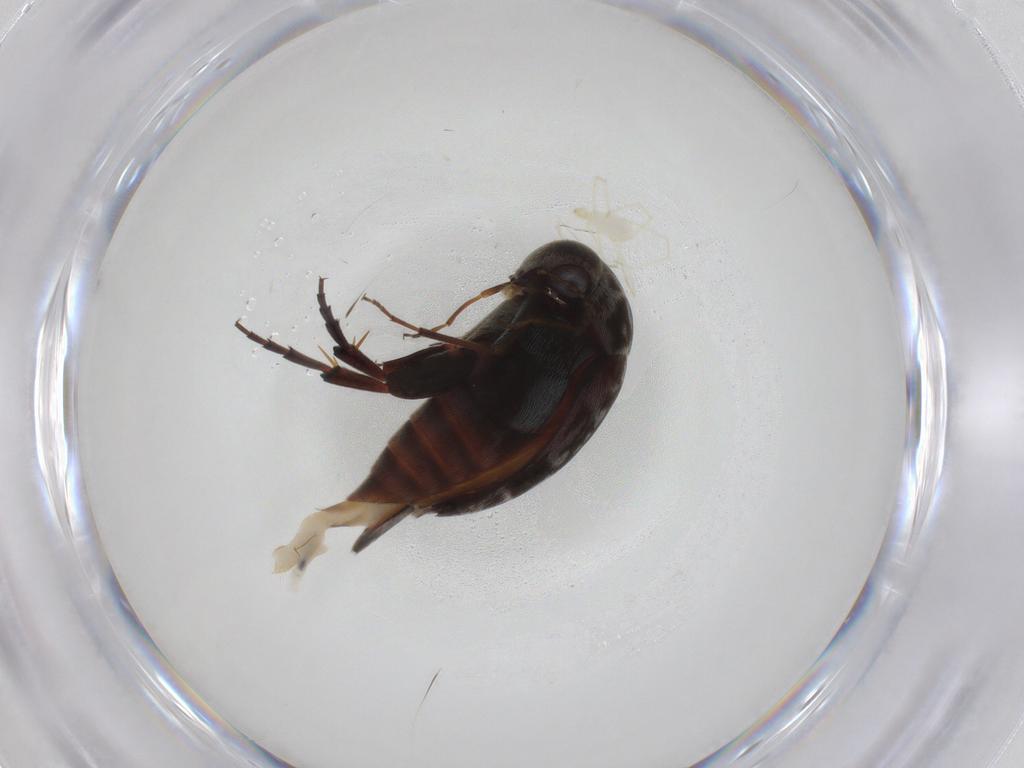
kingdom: Animalia
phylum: Arthropoda
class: Insecta
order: Coleoptera
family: Mordellidae
